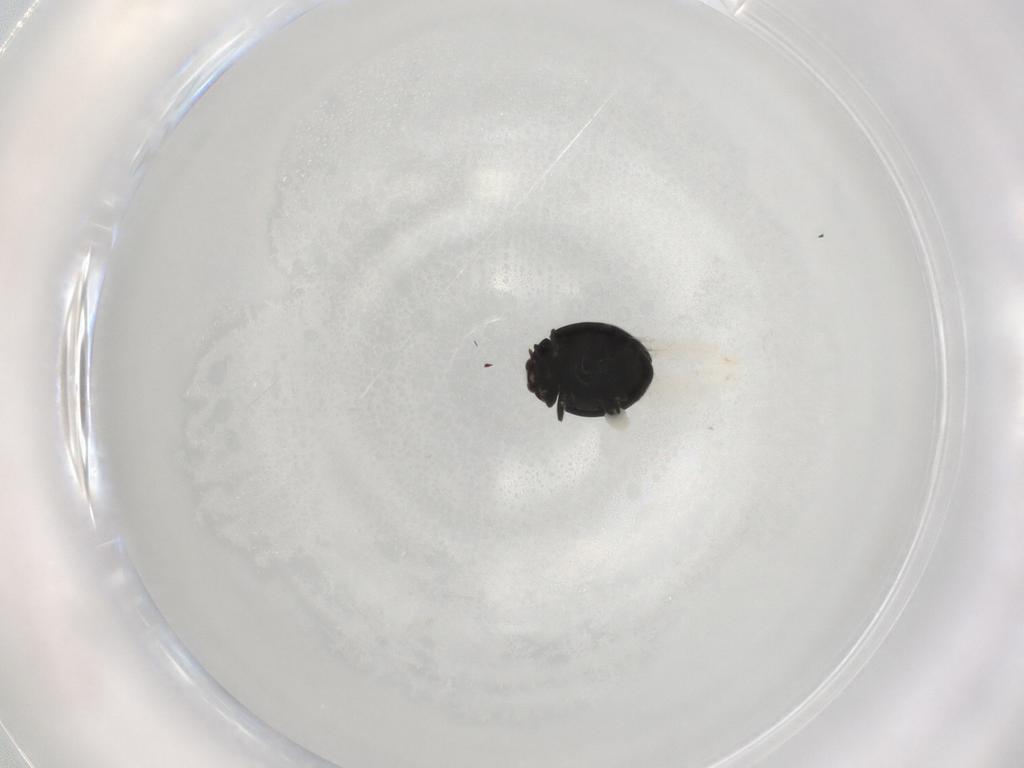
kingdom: Animalia
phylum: Arthropoda
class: Insecta
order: Coleoptera
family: Coccinellidae
